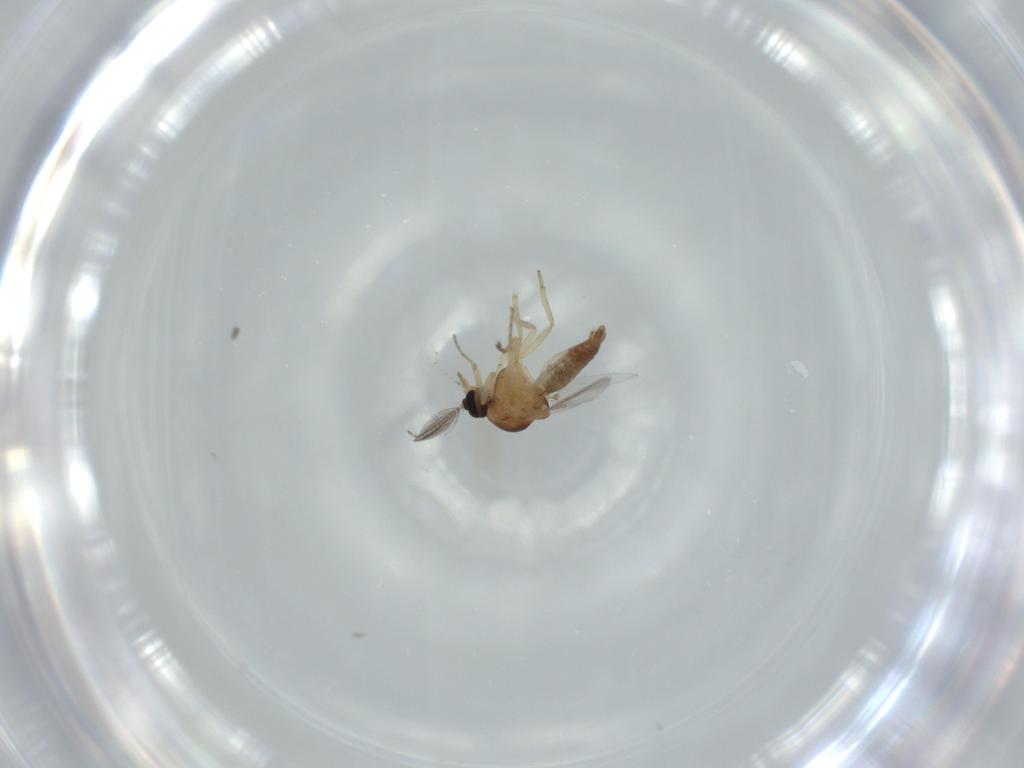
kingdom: Animalia
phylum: Arthropoda
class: Insecta
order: Diptera
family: Ceratopogonidae
